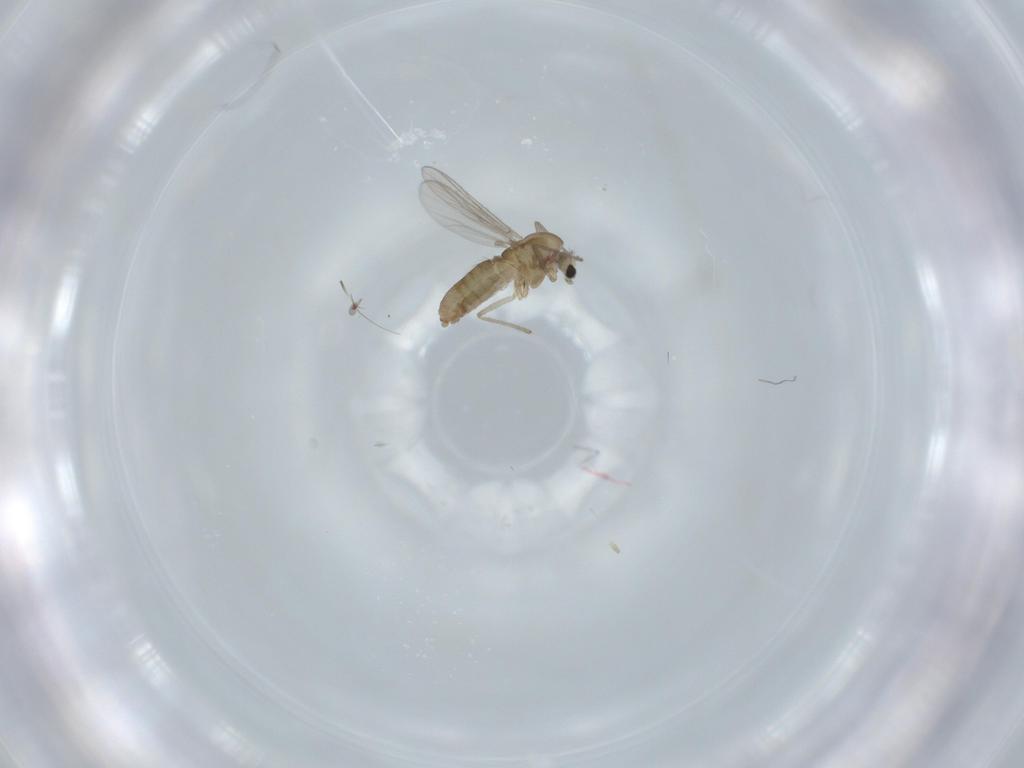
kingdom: Animalia
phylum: Arthropoda
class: Insecta
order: Diptera
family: Chironomidae
